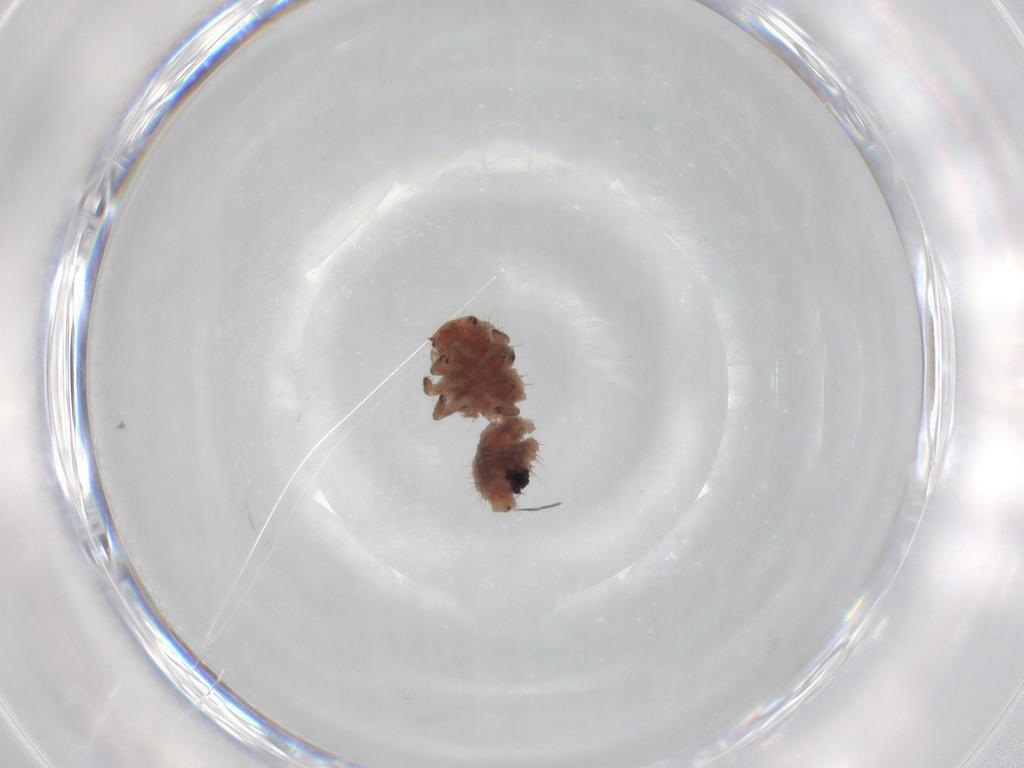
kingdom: Animalia
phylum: Arthropoda
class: Insecta
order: Coleoptera
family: Coccinellidae
